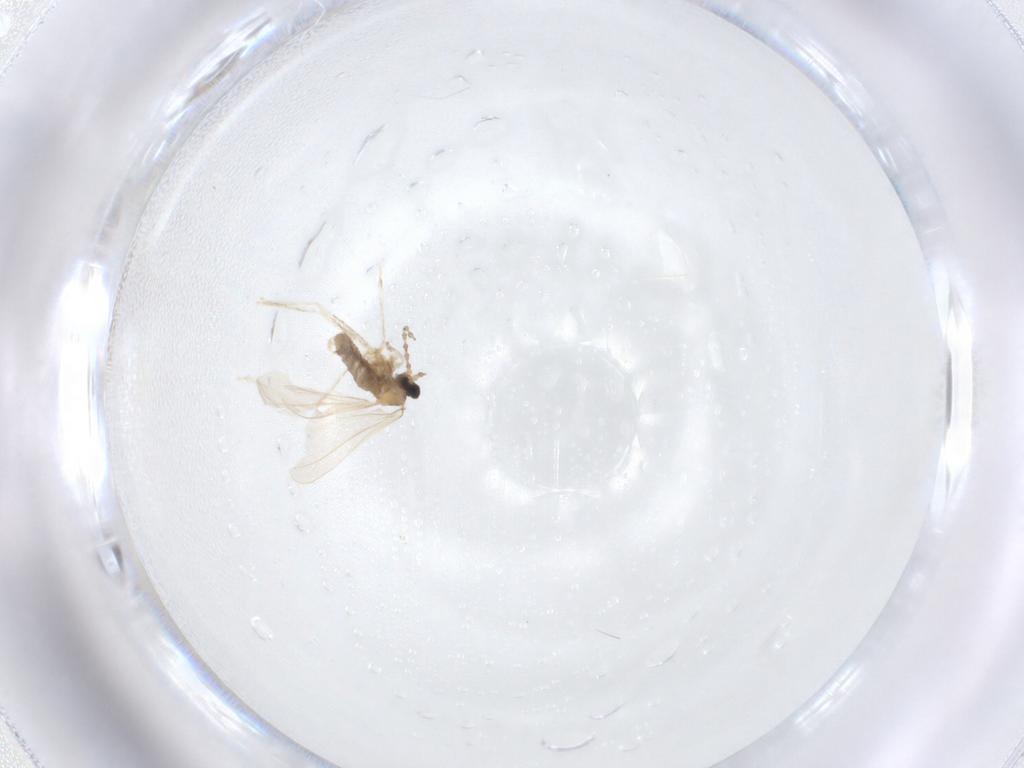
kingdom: Animalia
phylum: Arthropoda
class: Insecta
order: Diptera
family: Cecidomyiidae
